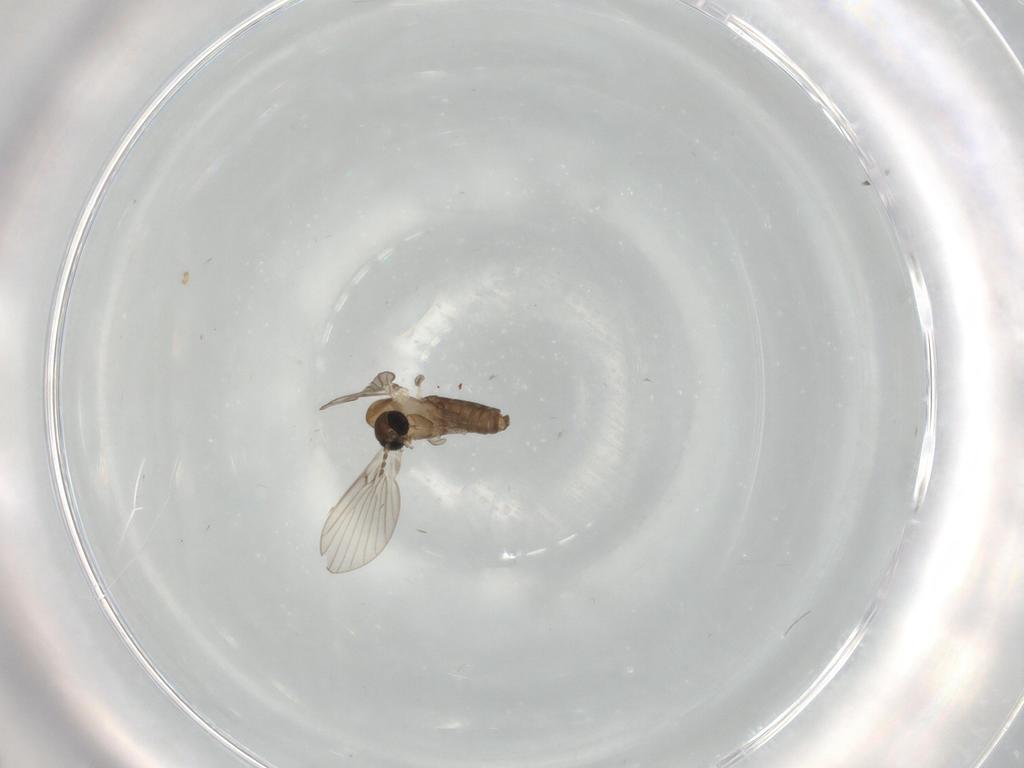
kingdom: Animalia
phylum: Arthropoda
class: Insecta
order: Diptera
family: Psychodidae
